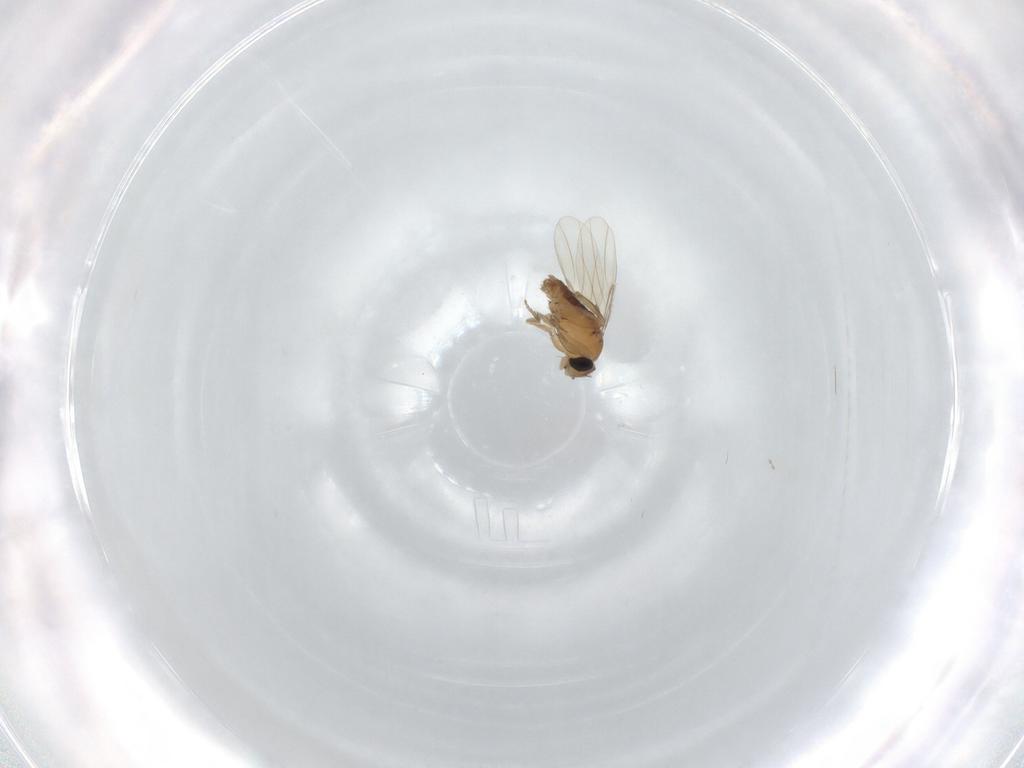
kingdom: Animalia
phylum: Arthropoda
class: Insecta
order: Diptera
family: Phoridae
